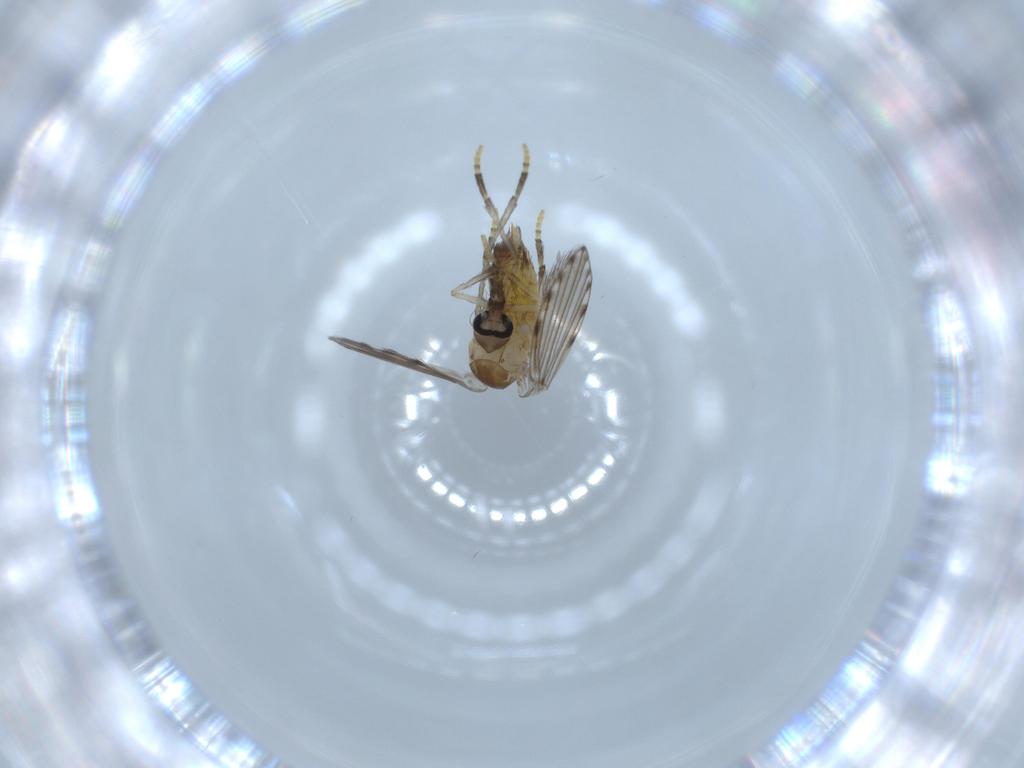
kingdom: Animalia
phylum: Arthropoda
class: Insecta
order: Diptera
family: Psychodidae
